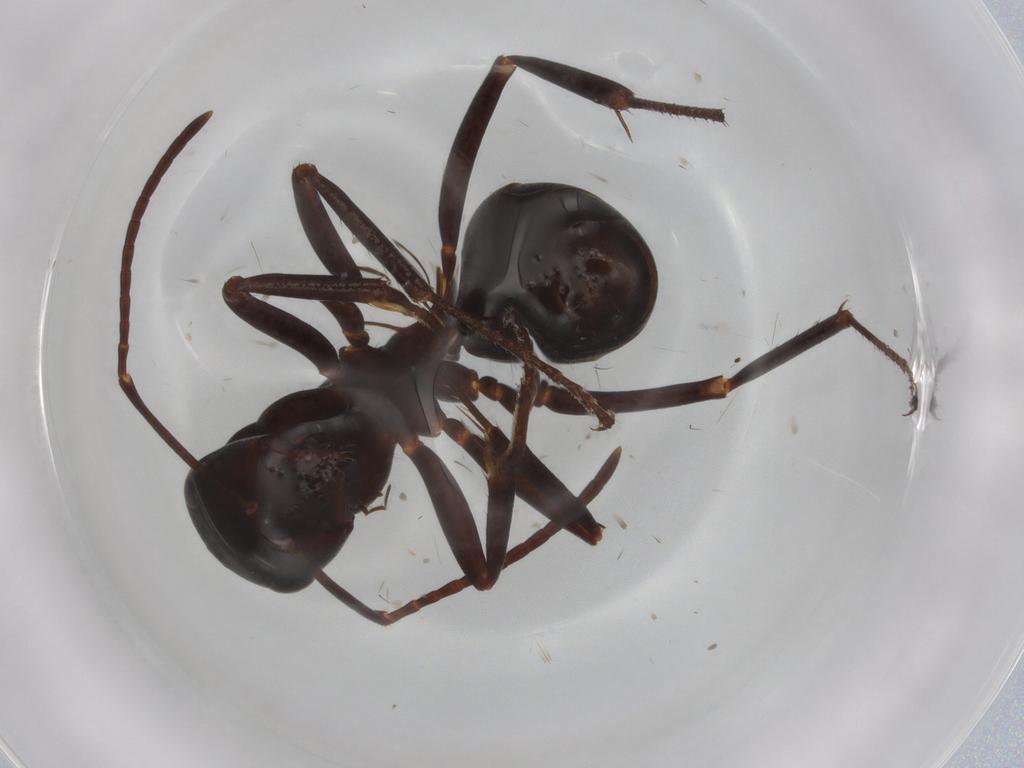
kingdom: Animalia
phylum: Arthropoda
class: Insecta
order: Hymenoptera
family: Formicidae
